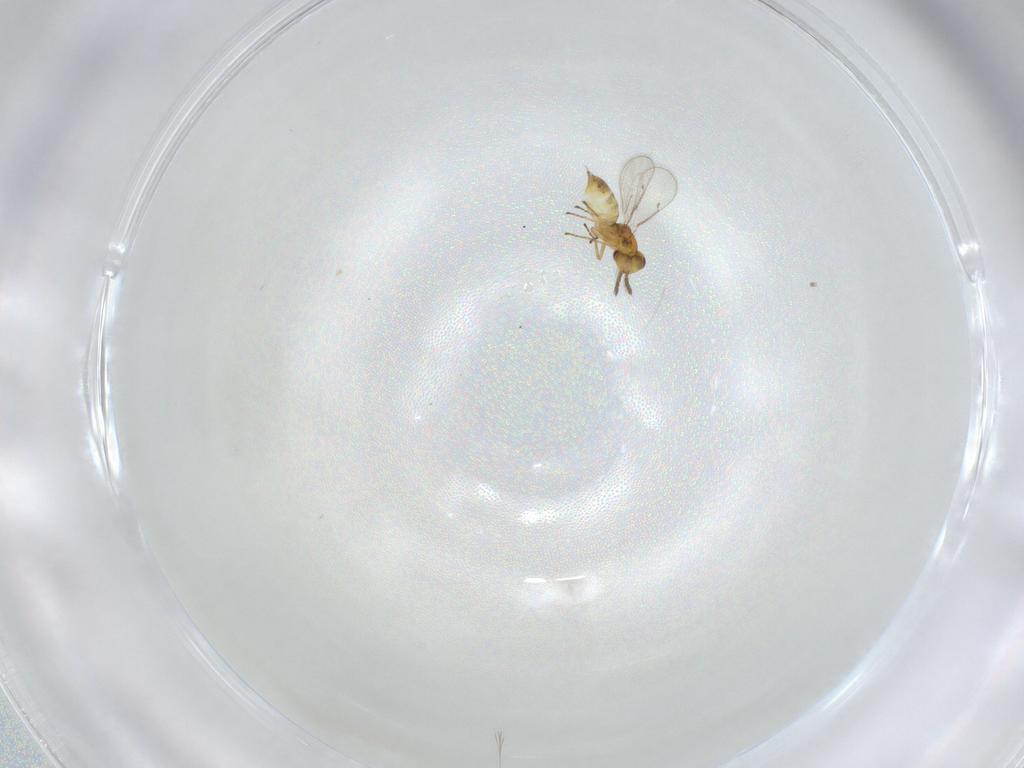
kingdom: Animalia
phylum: Arthropoda
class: Insecta
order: Hymenoptera
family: Eulophidae
